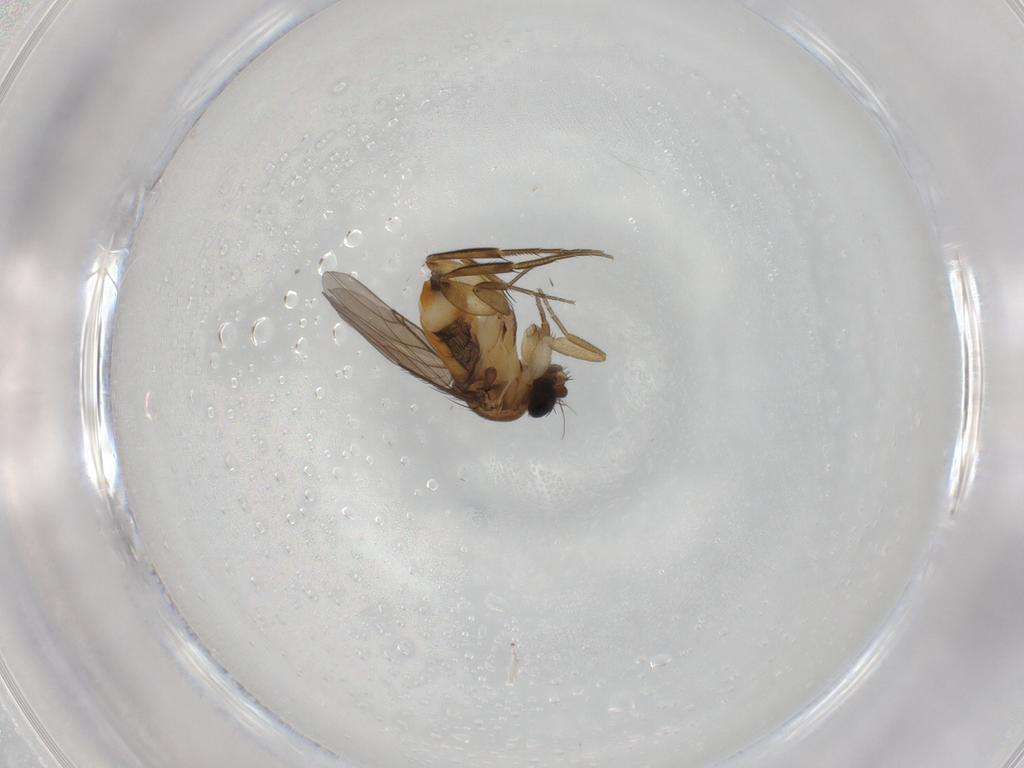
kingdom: Animalia
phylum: Arthropoda
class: Insecta
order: Diptera
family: Phoridae
